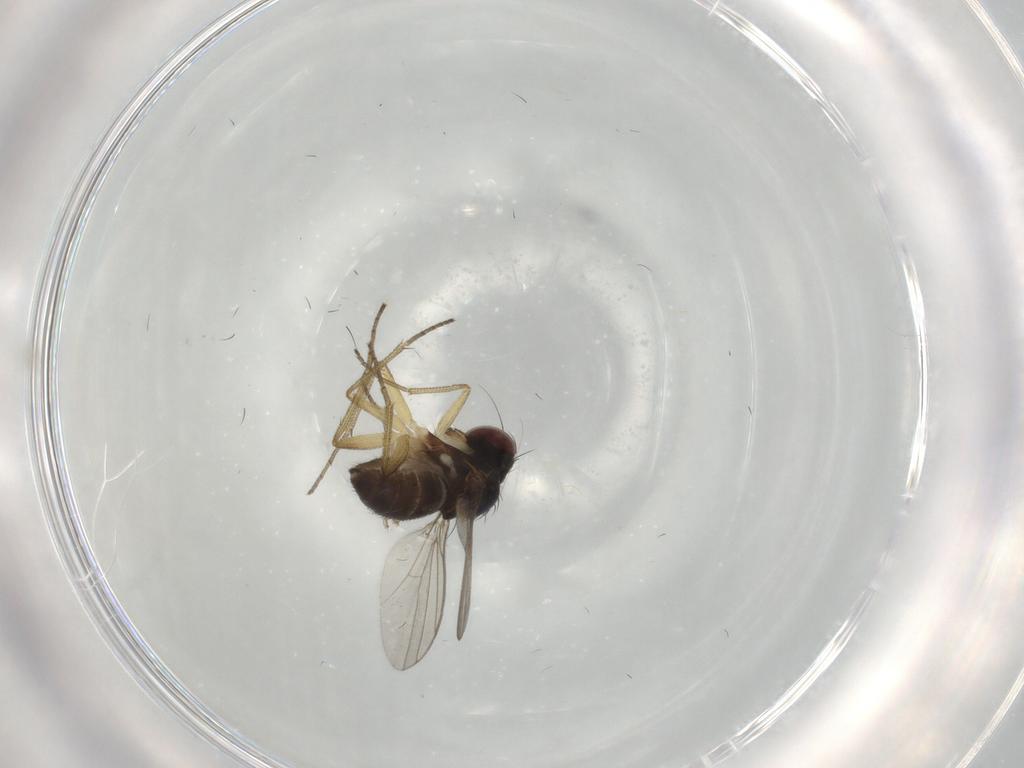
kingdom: Animalia
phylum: Arthropoda
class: Insecta
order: Diptera
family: Dolichopodidae
